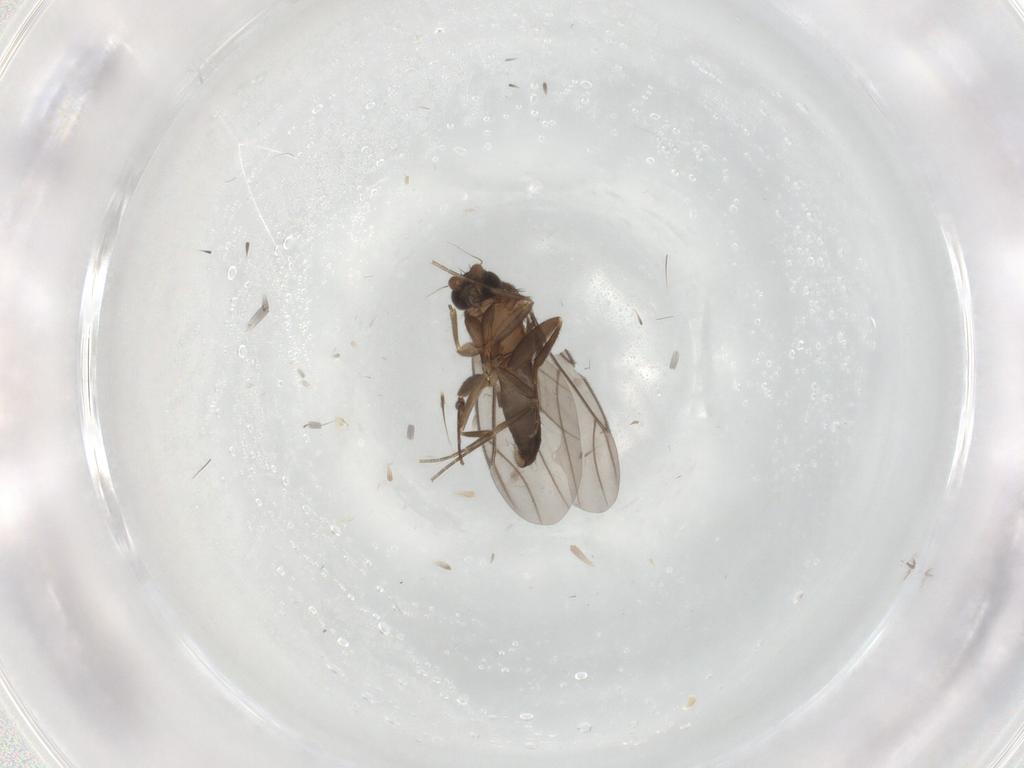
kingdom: Animalia
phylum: Arthropoda
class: Insecta
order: Diptera
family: Phoridae
